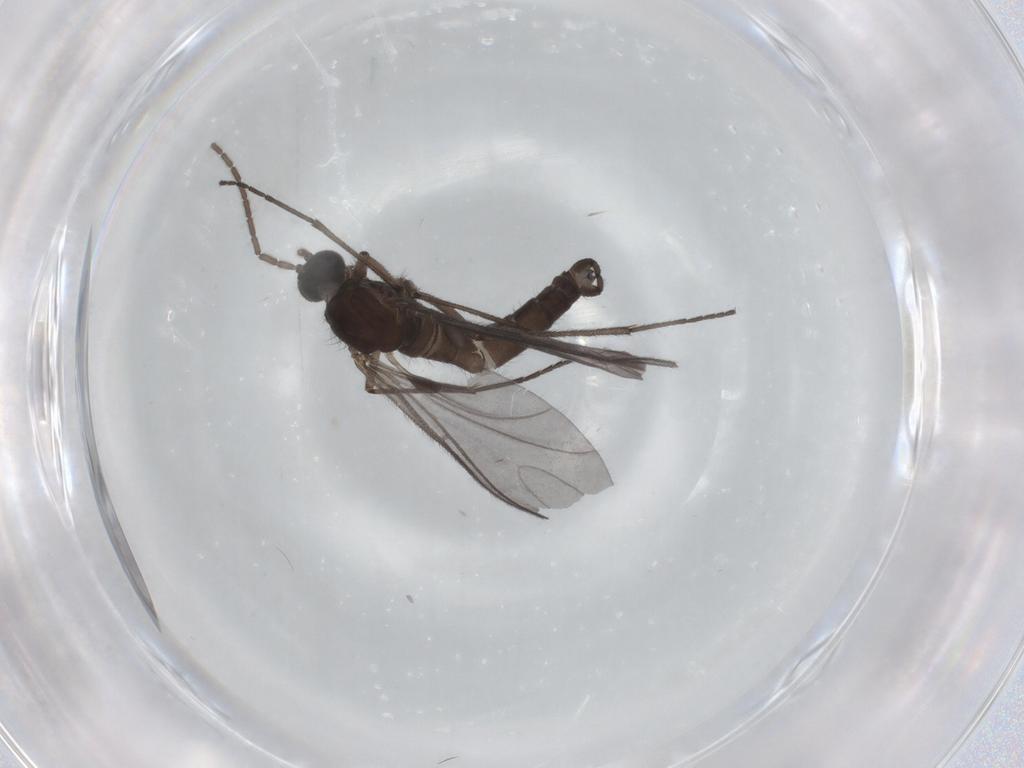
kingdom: Animalia
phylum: Arthropoda
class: Insecta
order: Diptera
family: Sciaridae
